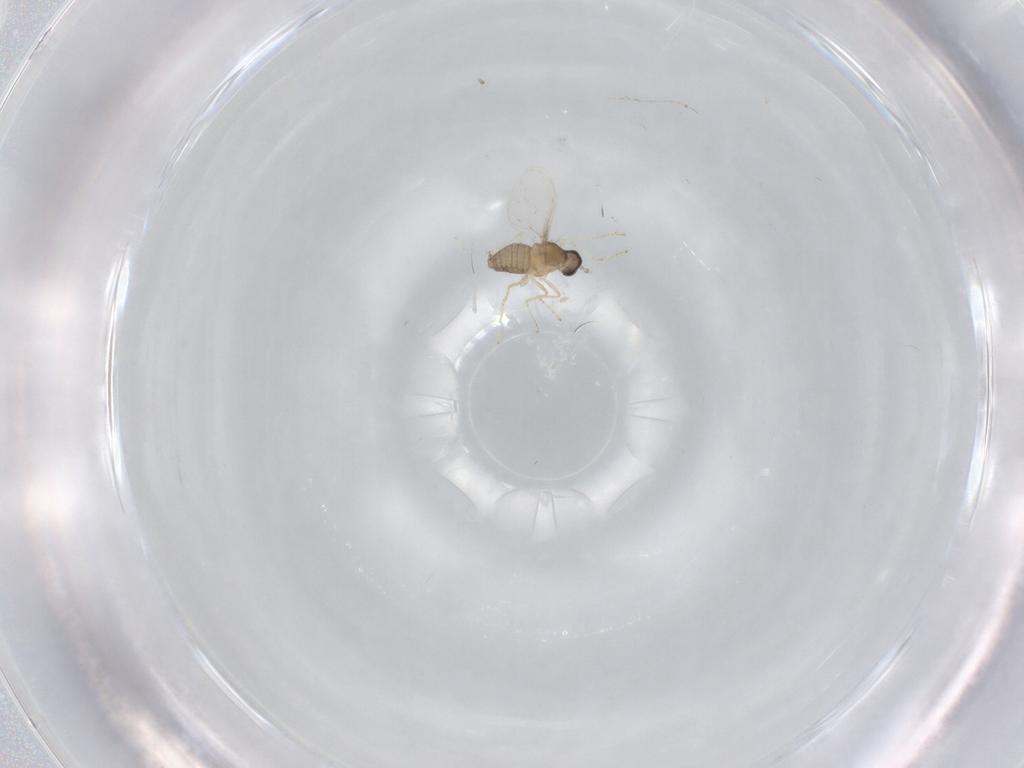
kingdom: Animalia
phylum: Arthropoda
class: Insecta
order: Diptera
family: Cecidomyiidae
